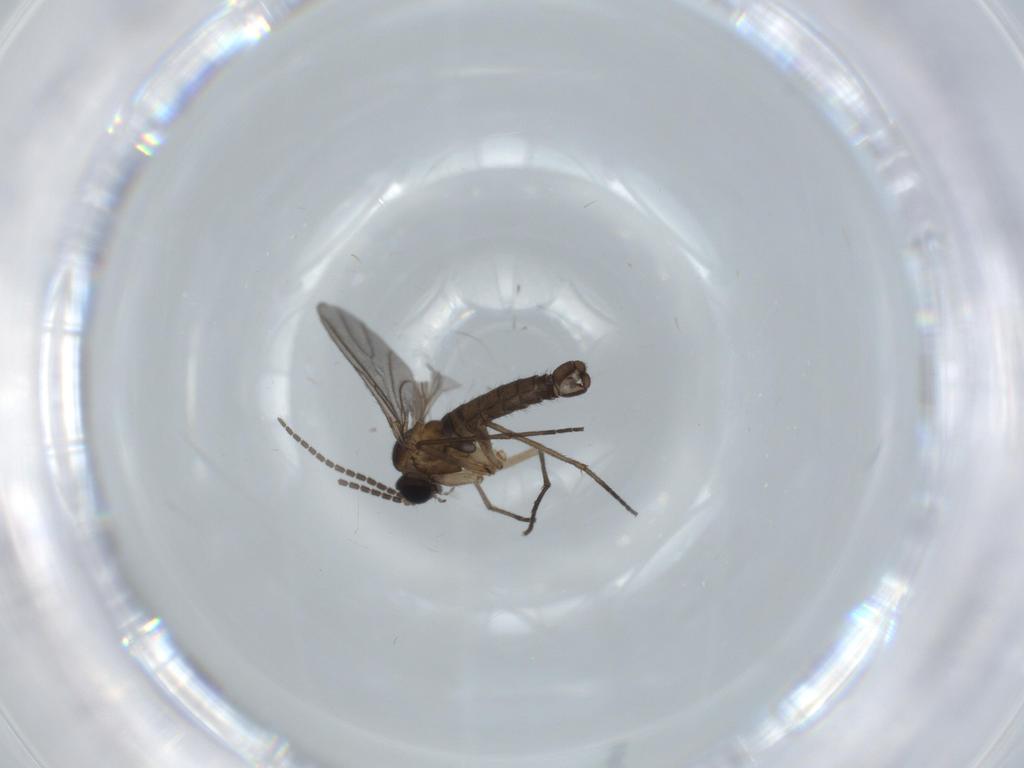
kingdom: Animalia
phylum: Arthropoda
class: Insecta
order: Diptera
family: Sciaridae
